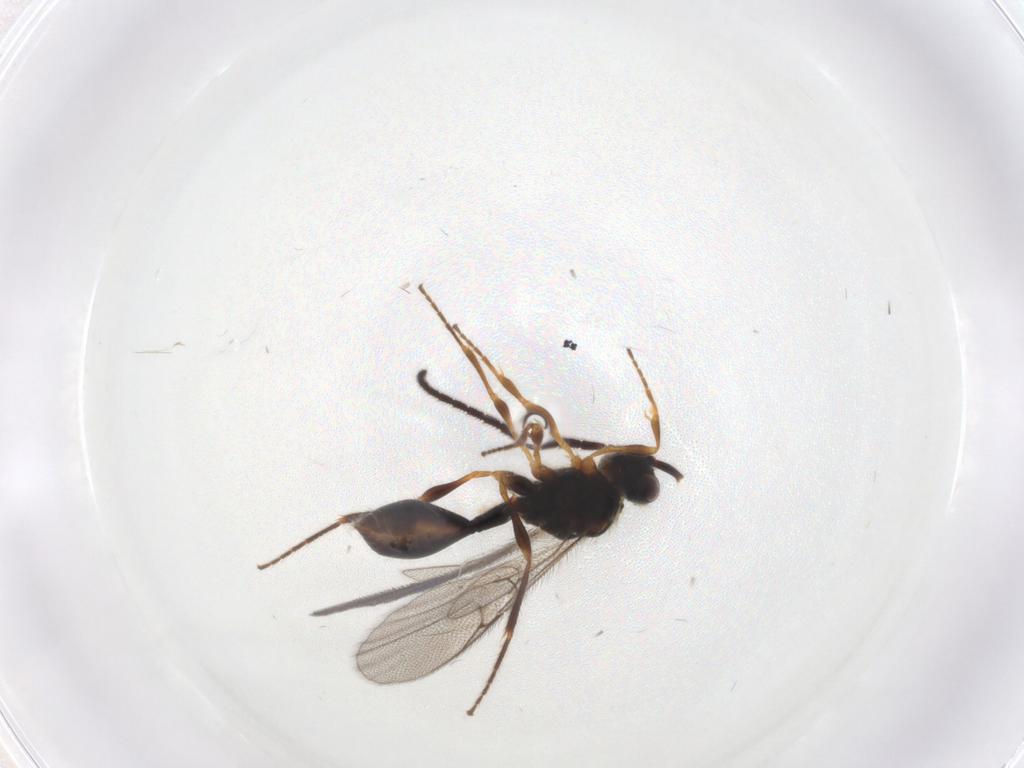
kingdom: Animalia
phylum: Arthropoda
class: Insecta
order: Hymenoptera
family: Diapriidae
